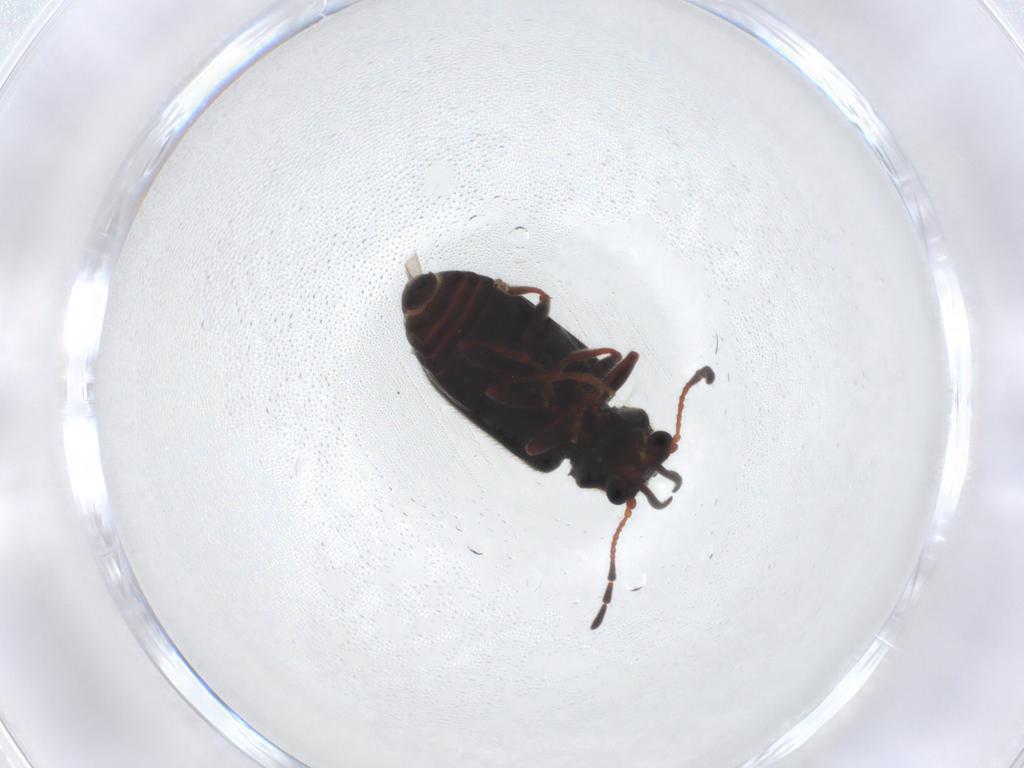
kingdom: Animalia
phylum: Arthropoda
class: Insecta
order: Coleoptera
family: Ptinidae
